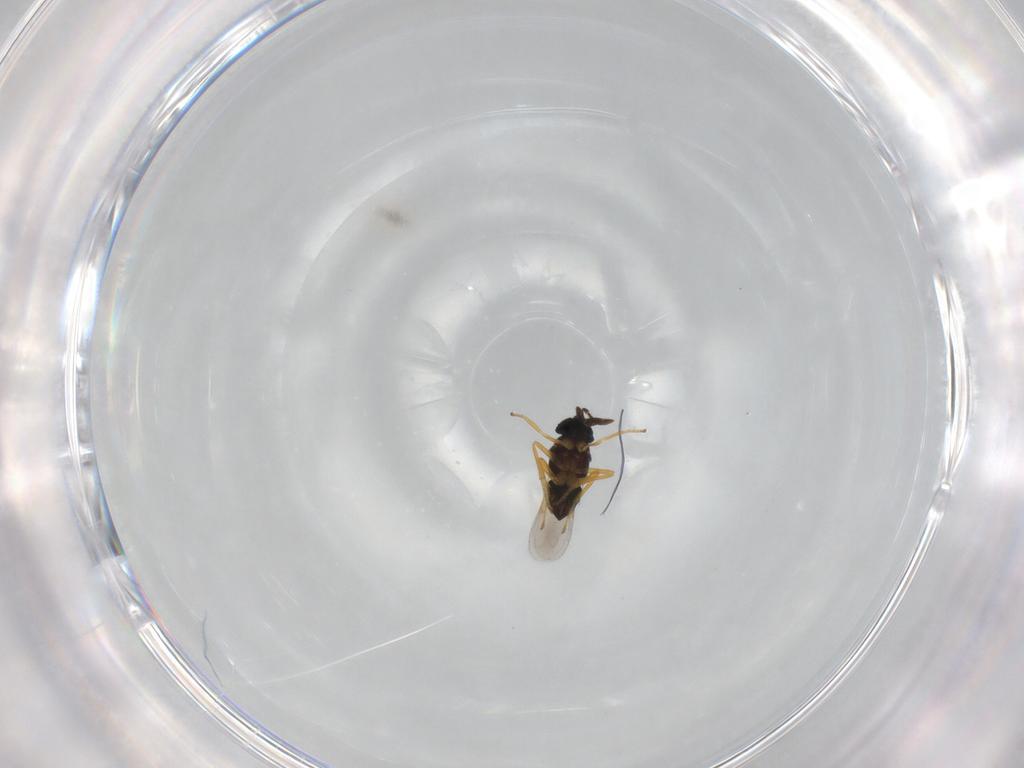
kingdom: Animalia
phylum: Arthropoda
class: Insecta
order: Hymenoptera
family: Encyrtidae
